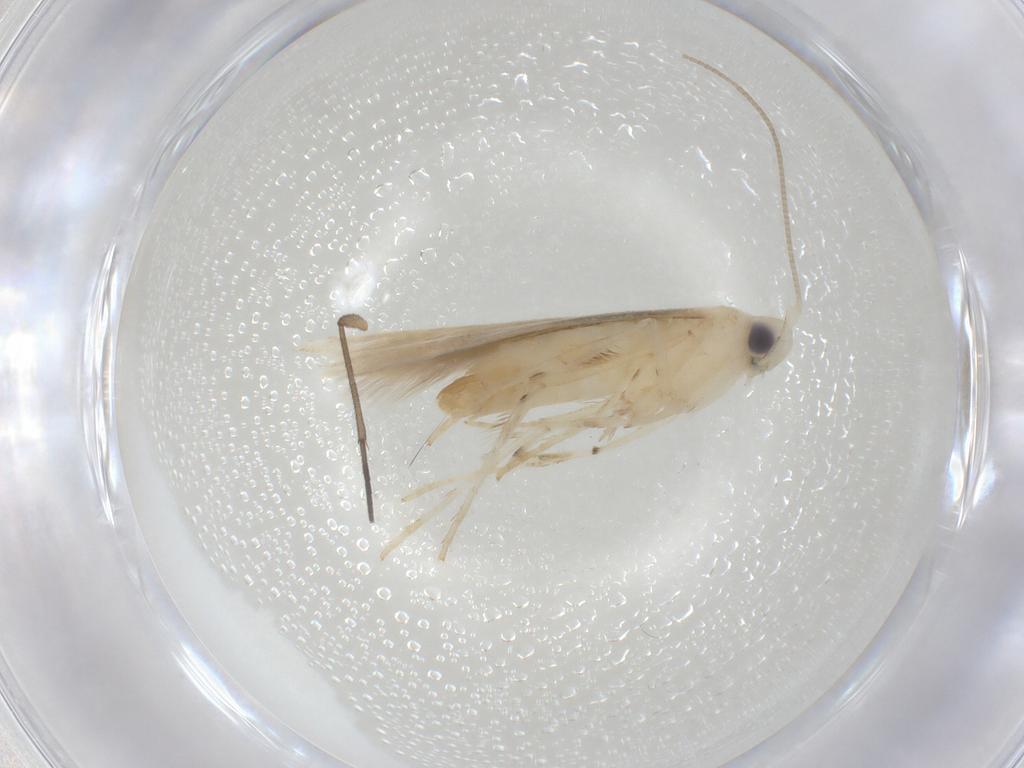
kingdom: Animalia
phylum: Arthropoda
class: Insecta
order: Lepidoptera
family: Gracillariidae
